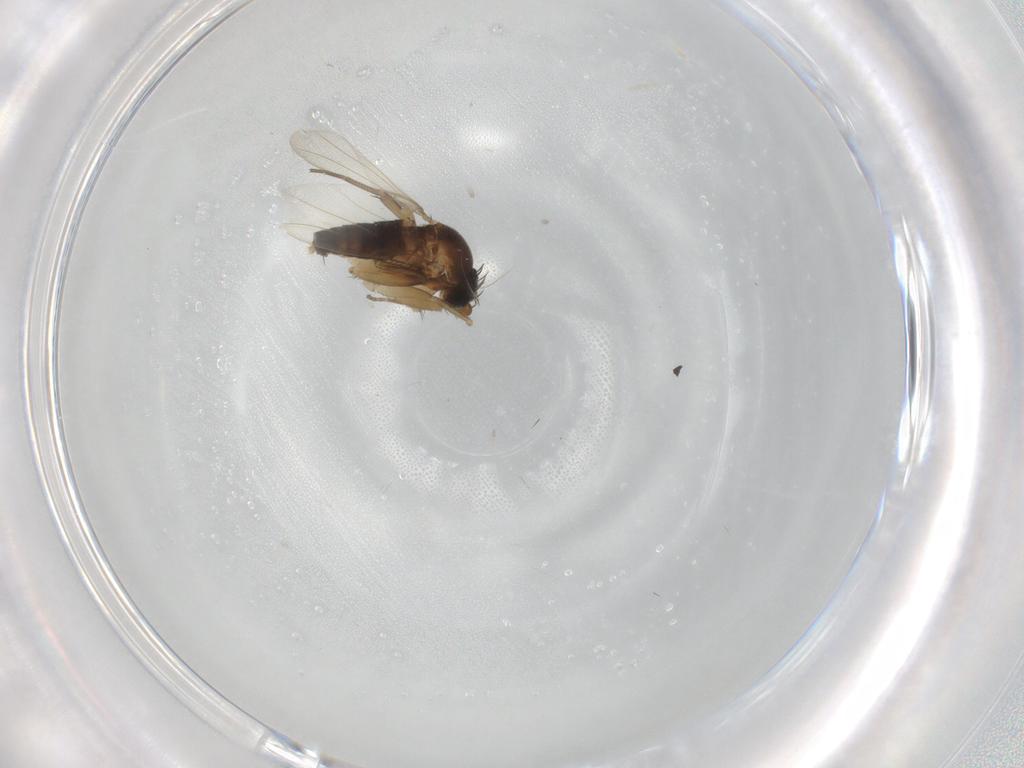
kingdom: Animalia
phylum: Arthropoda
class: Insecta
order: Diptera
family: Phoridae
